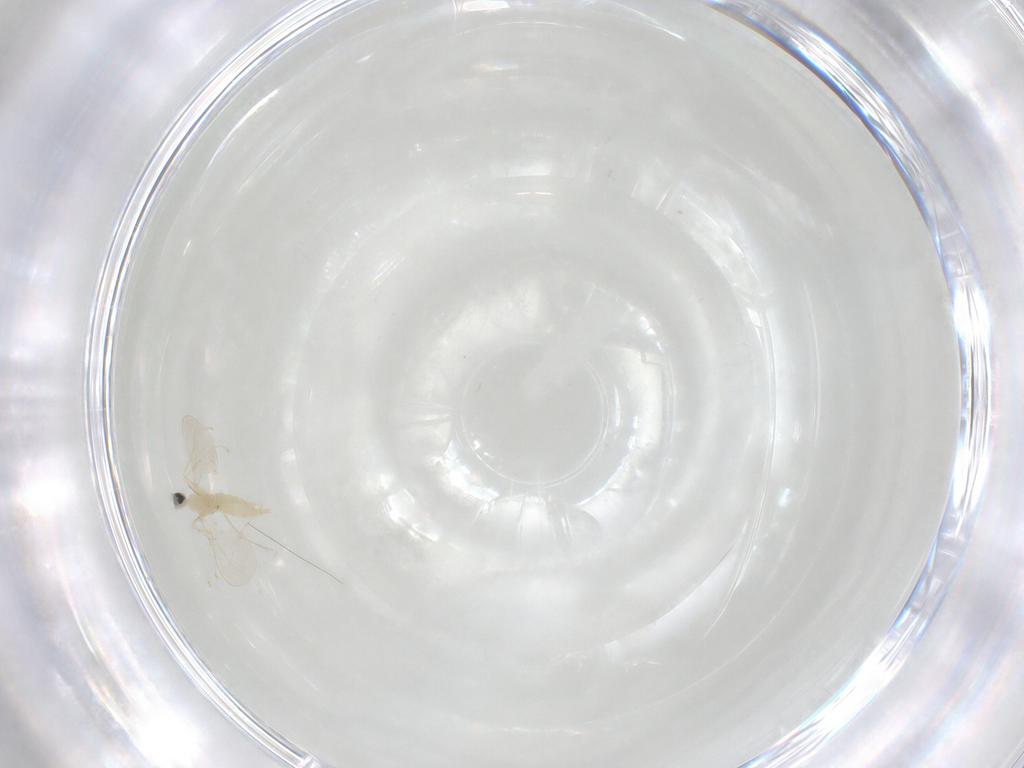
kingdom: Animalia
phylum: Arthropoda
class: Insecta
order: Diptera
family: Cecidomyiidae
